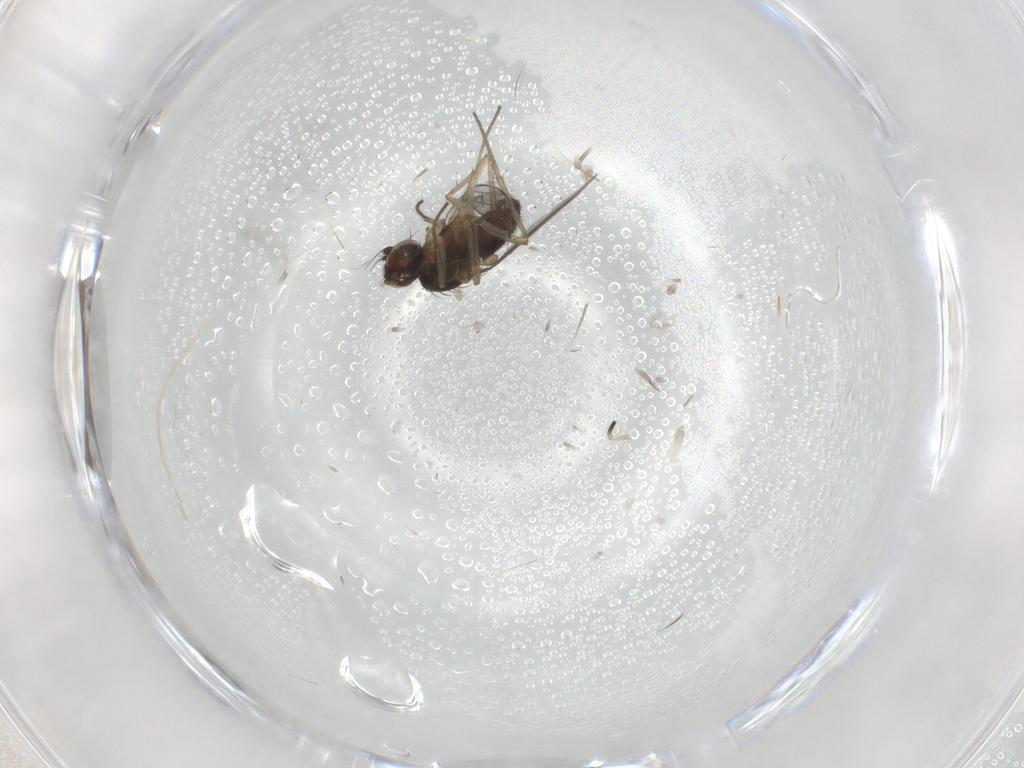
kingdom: Animalia
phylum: Arthropoda
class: Insecta
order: Diptera
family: Dolichopodidae
